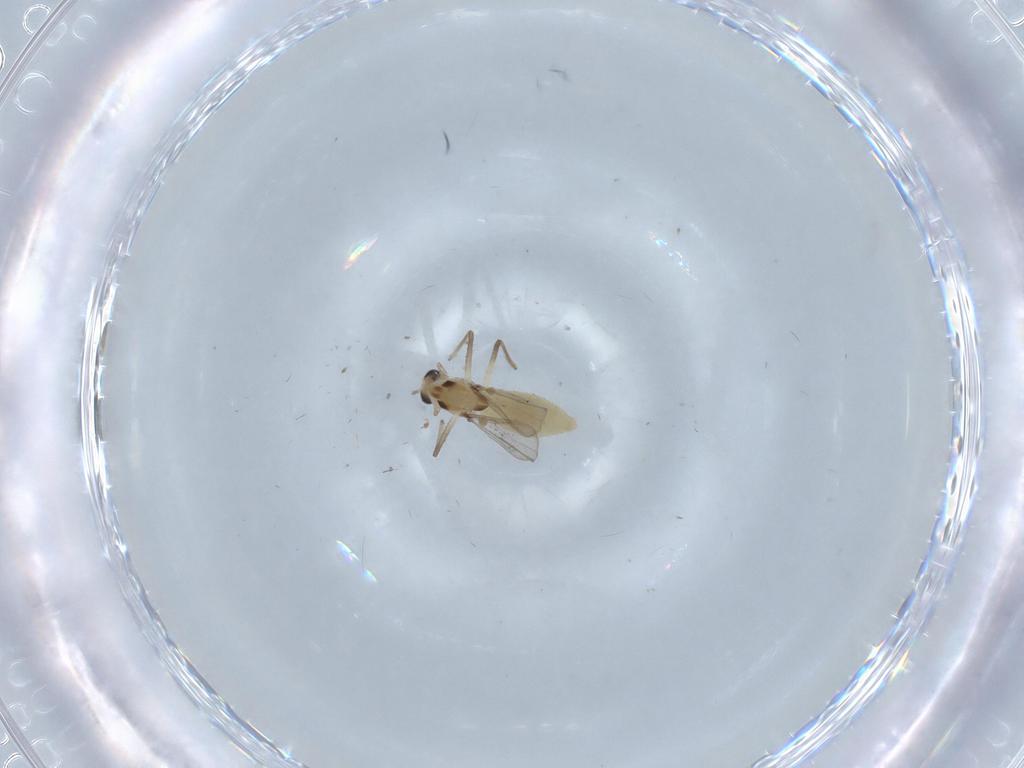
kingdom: Animalia
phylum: Arthropoda
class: Insecta
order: Diptera
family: Chironomidae
